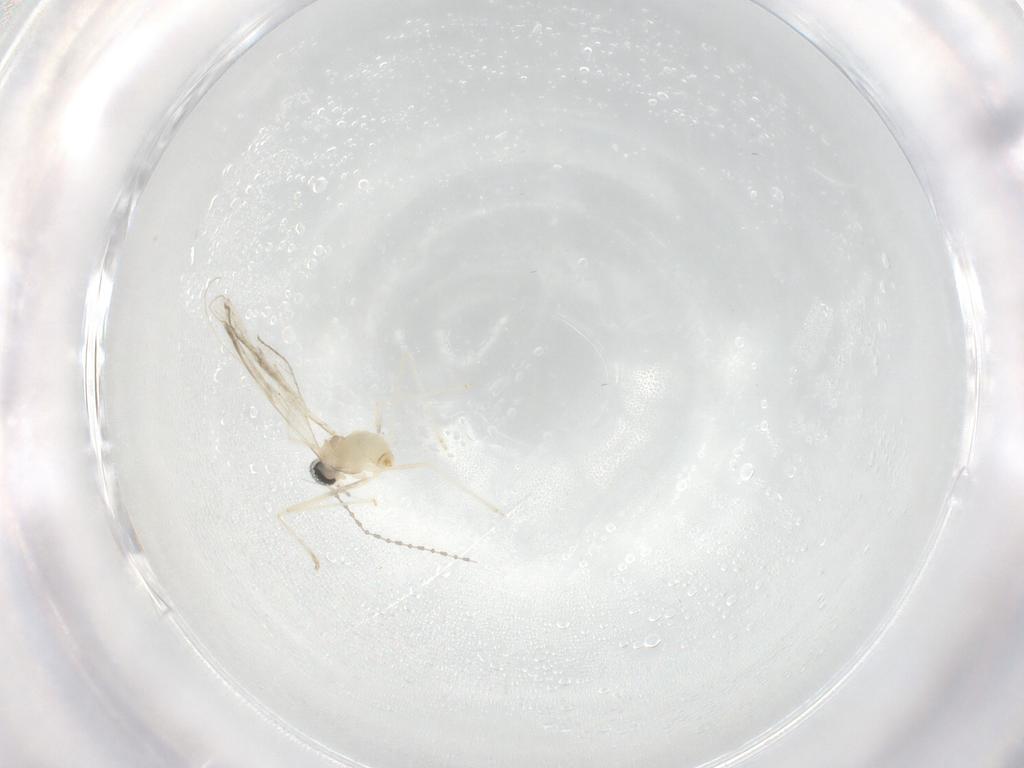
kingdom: Animalia
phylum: Arthropoda
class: Insecta
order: Diptera
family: Cecidomyiidae
